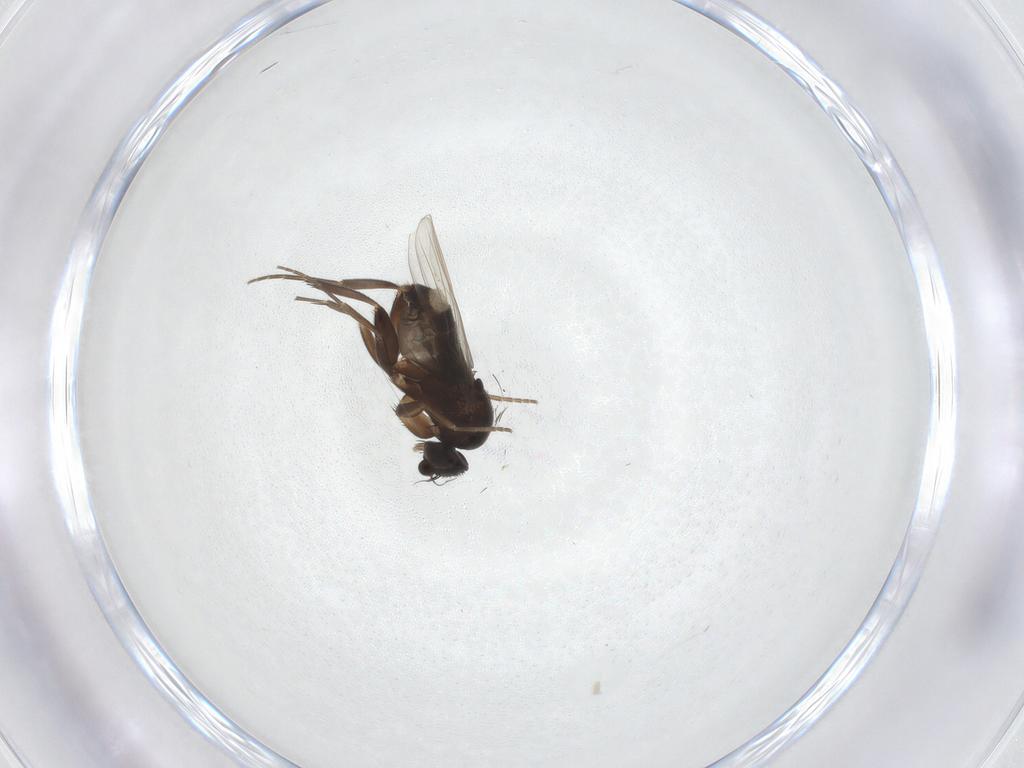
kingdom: Animalia
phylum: Arthropoda
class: Insecta
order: Diptera
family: Phoridae
